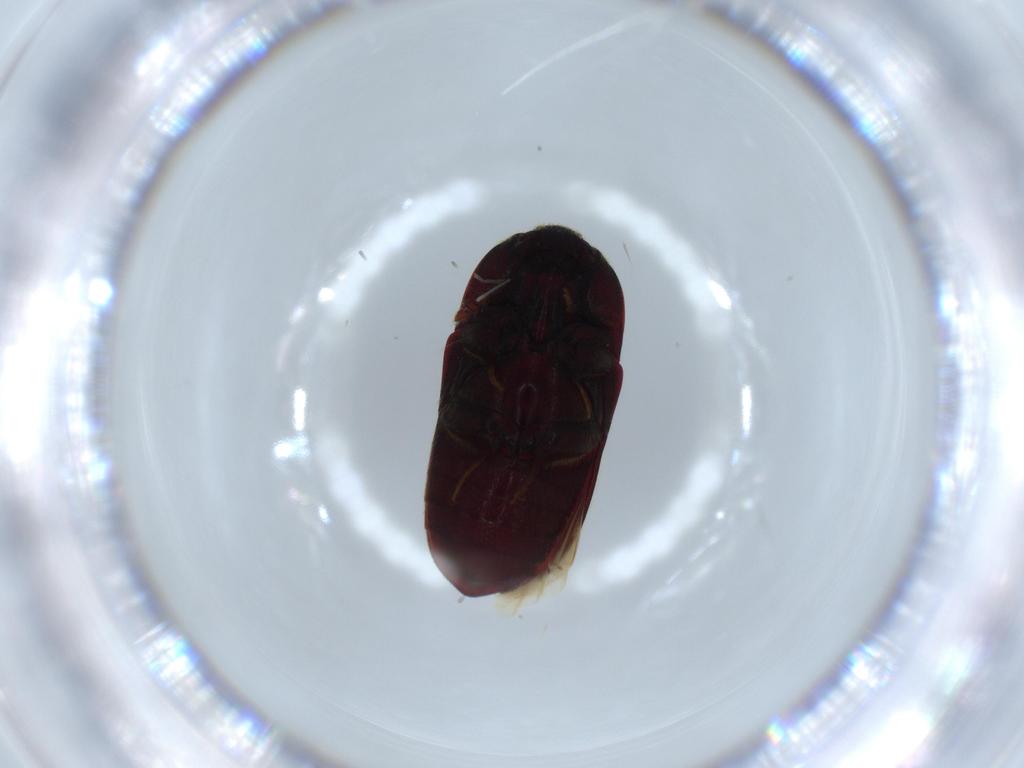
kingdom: Animalia
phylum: Arthropoda
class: Insecta
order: Coleoptera
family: Throscidae
